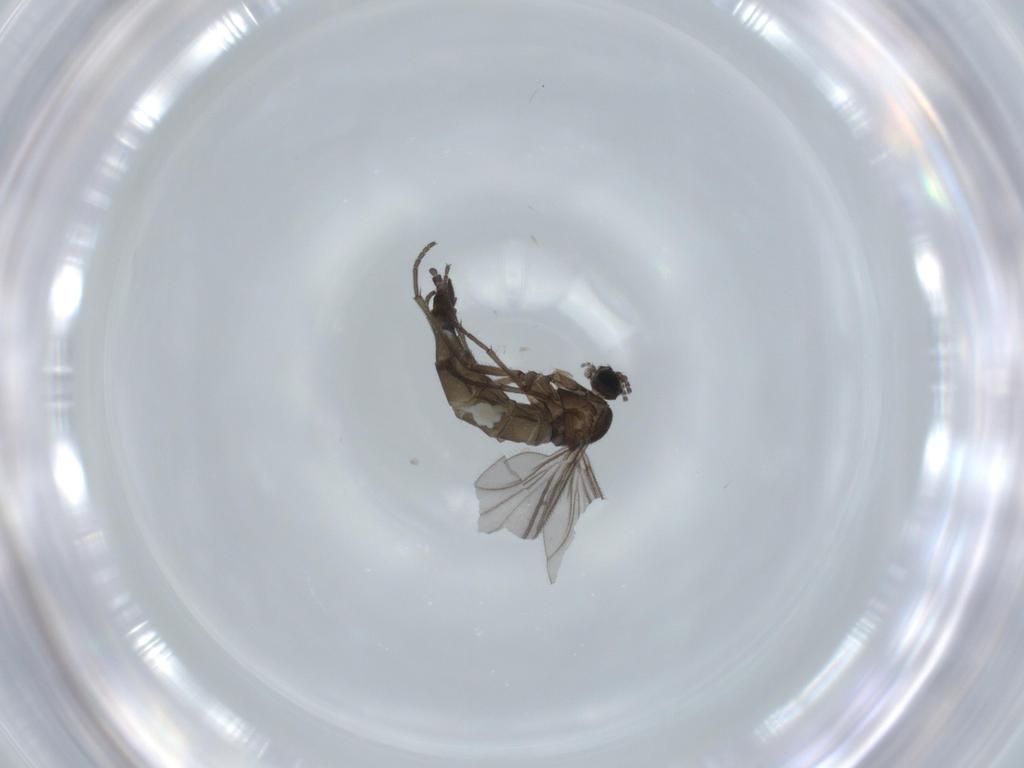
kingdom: Animalia
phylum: Arthropoda
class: Insecta
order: Diptera
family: Sciaridae
